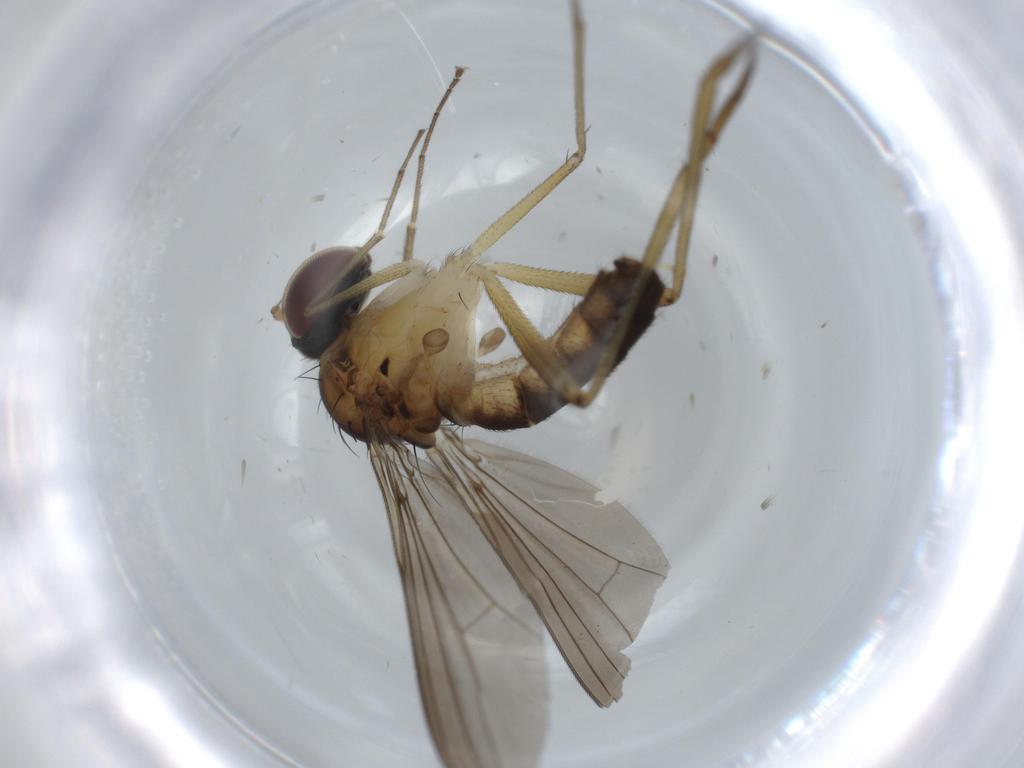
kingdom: Animalia
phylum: Arthropoda
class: Insecta
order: Diptera
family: Dolichopodidae
